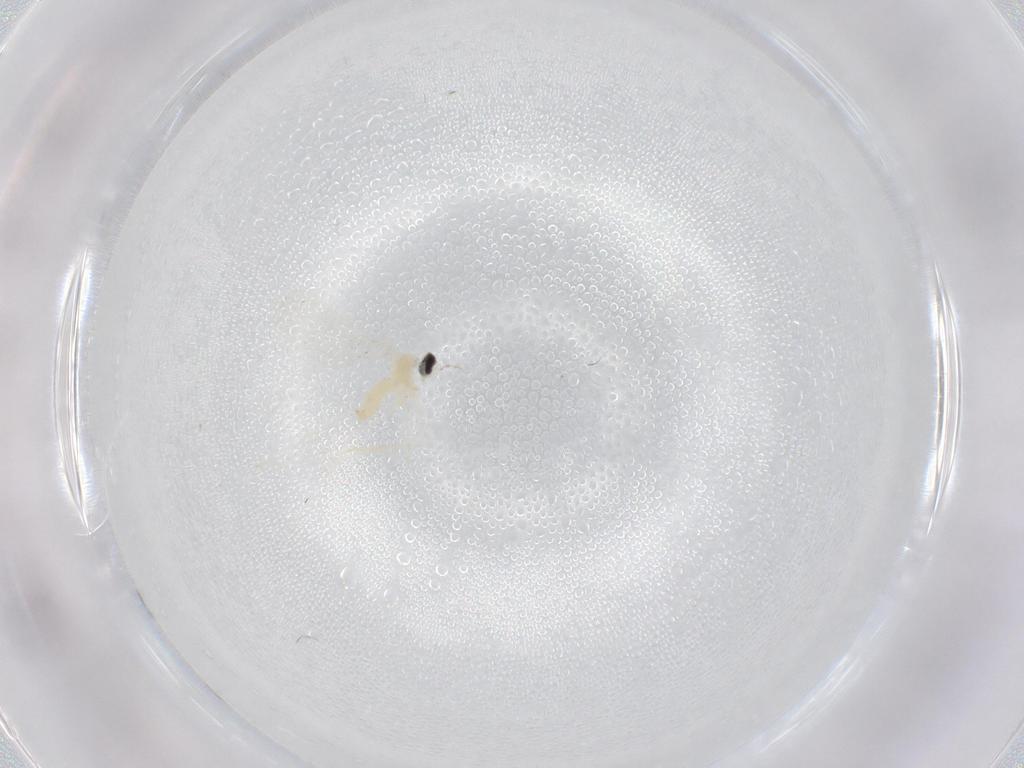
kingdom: Animalia
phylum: Arthropoda
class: Insecta
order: Diptera
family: Cecidomyiidae
